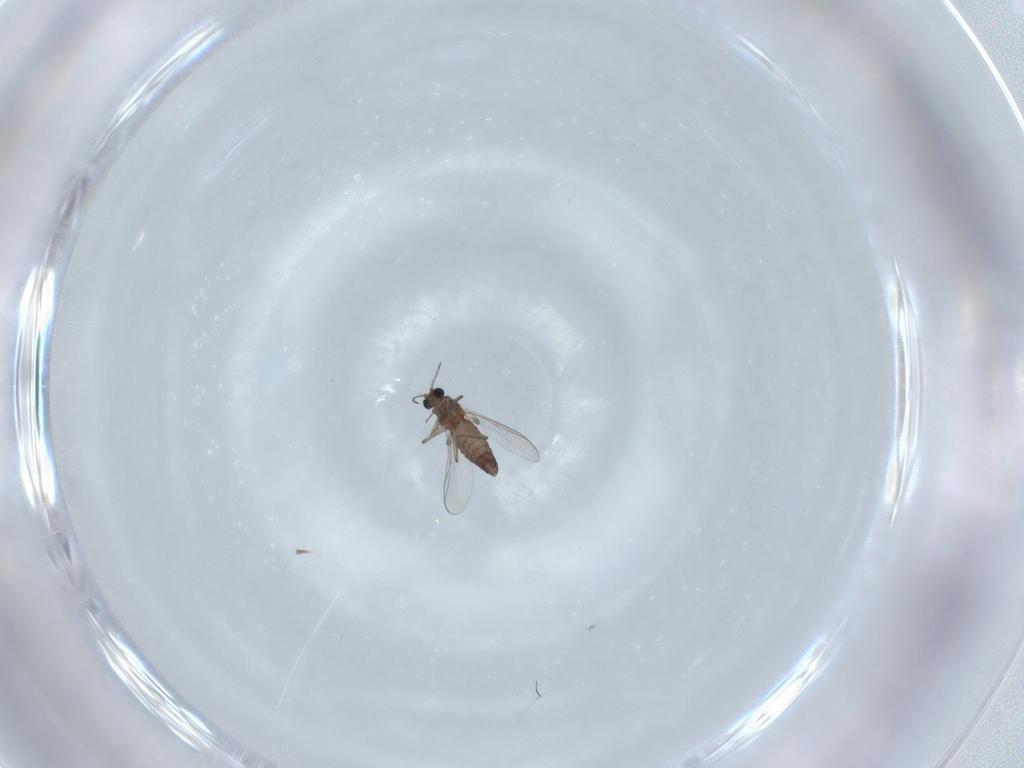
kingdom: Animalia
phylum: Arthropoda
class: Insecta
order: Diptera
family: Chironomidae
